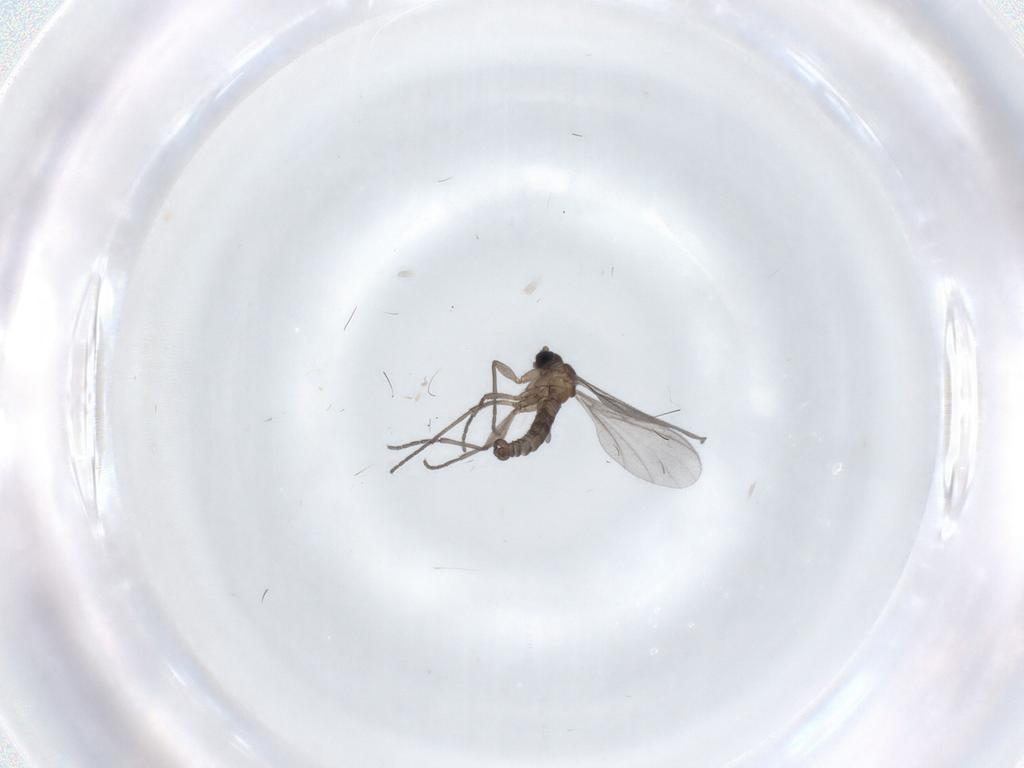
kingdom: Animalia
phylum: Arthropoda
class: Insecta
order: Diptera
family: Sciaridae
